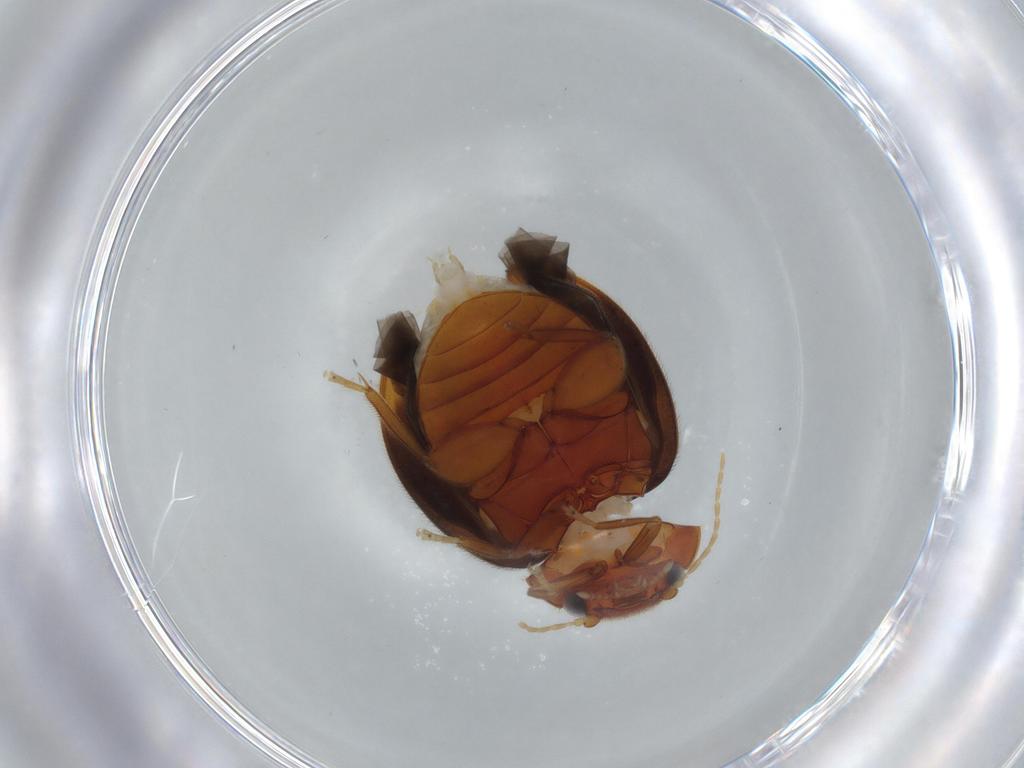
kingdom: Animalia
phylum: Arthropoda
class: Insecta
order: Coleoptera
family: Scirtidae
